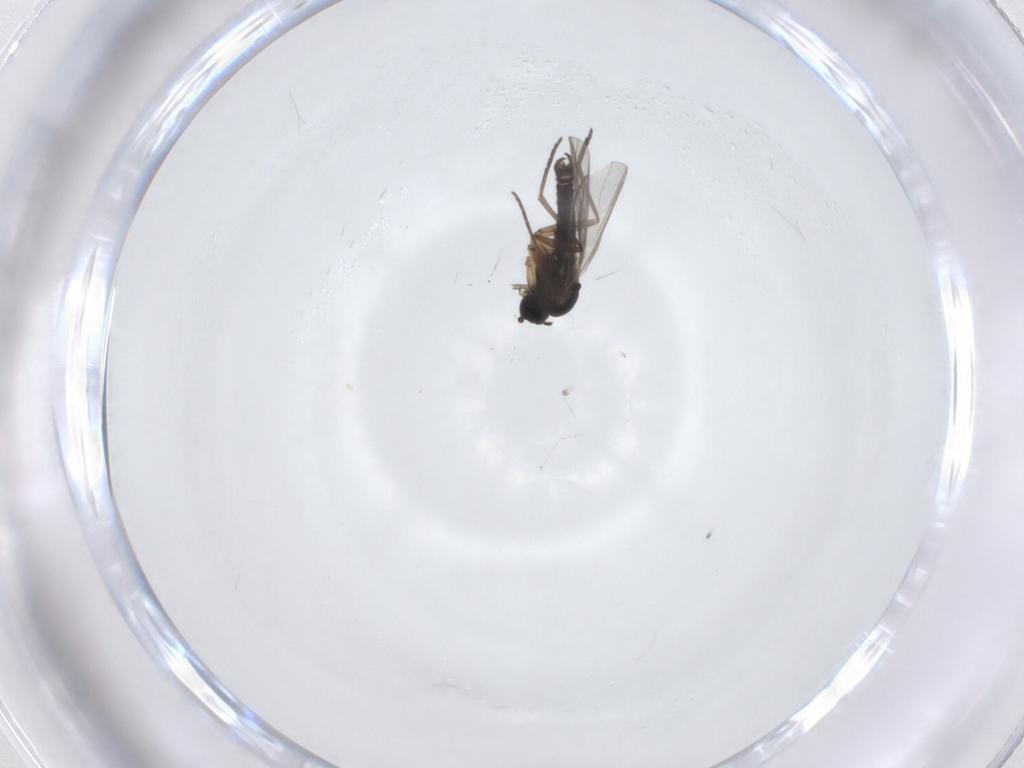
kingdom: Animalia
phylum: Arthropoda
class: Insecta
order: Diptera
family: Sciaridae
